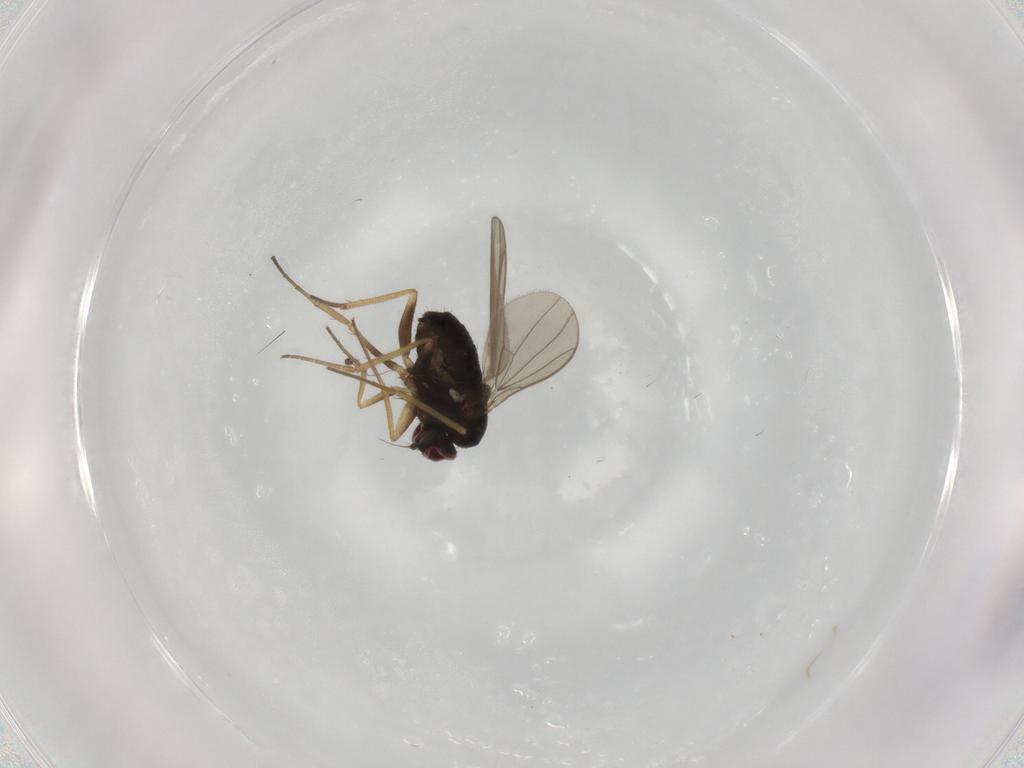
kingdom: Animalia
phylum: Arthropoda
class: Insecta
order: Diptera
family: Dolichopodidae
